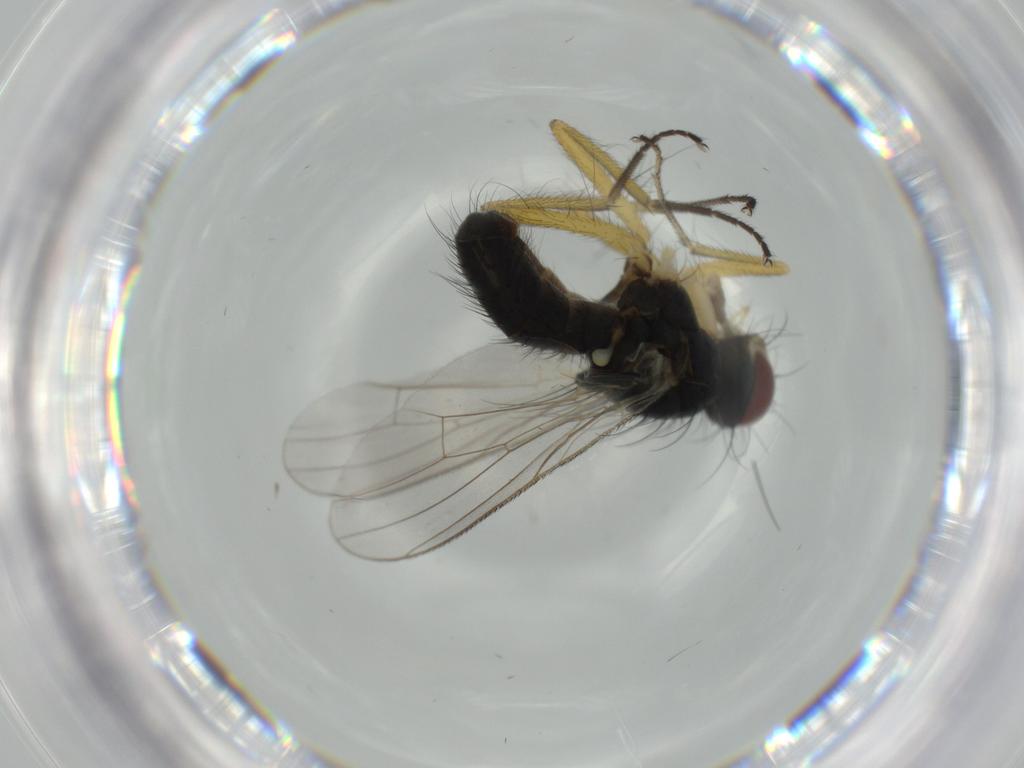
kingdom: Animalia
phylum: Arthropoda
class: Insecta
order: Diptera
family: Muscidae
